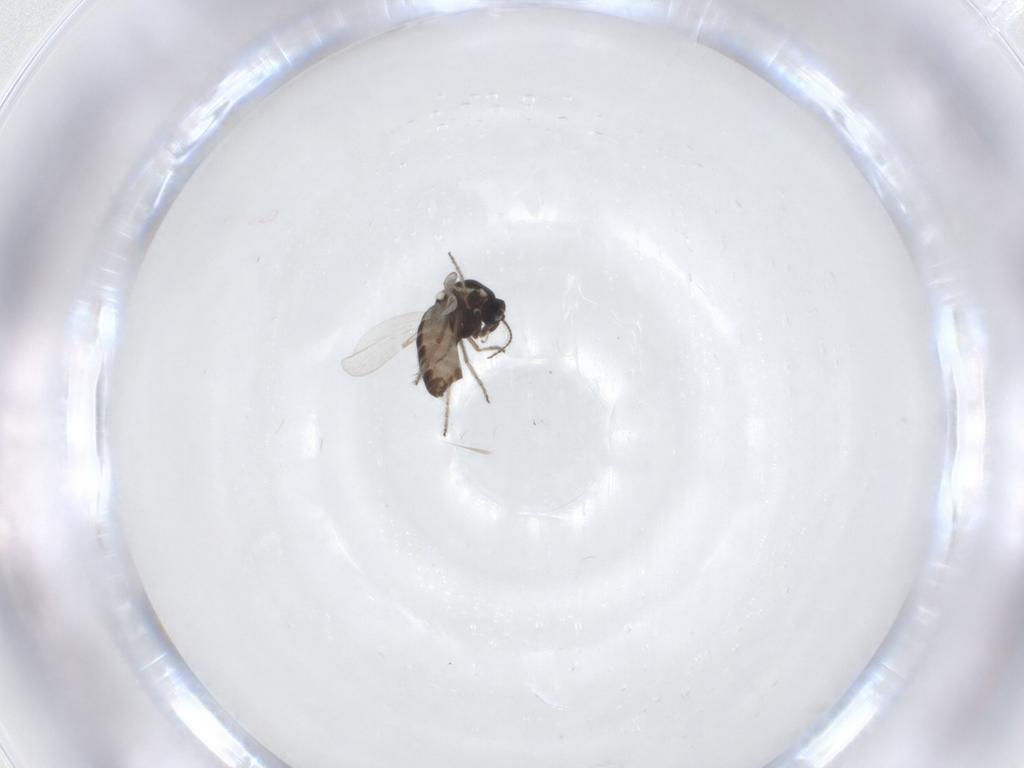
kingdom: Animalia
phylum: Arthropoda
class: Insecta
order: Diptera
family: Ceratopogonidae
